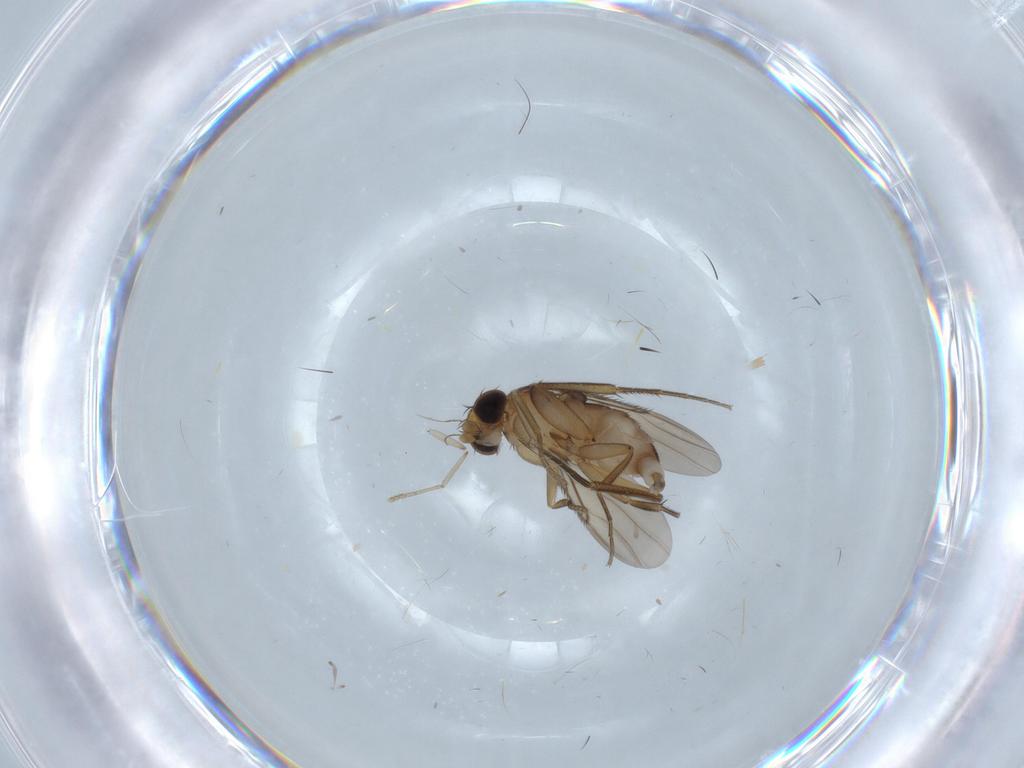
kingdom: Animalia
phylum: Arthropoda
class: Insecta
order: Diptera
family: Phoridae
